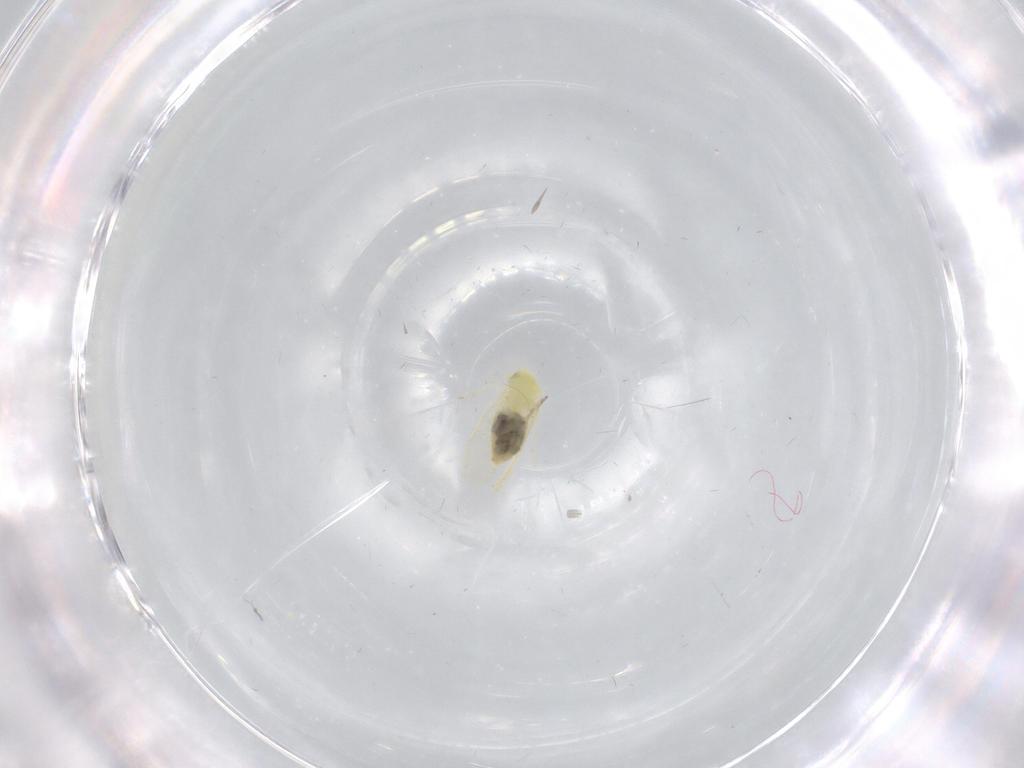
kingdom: Animalia
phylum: Arthropoda
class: Insecta
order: Hemiptera
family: Aleyrodidae
